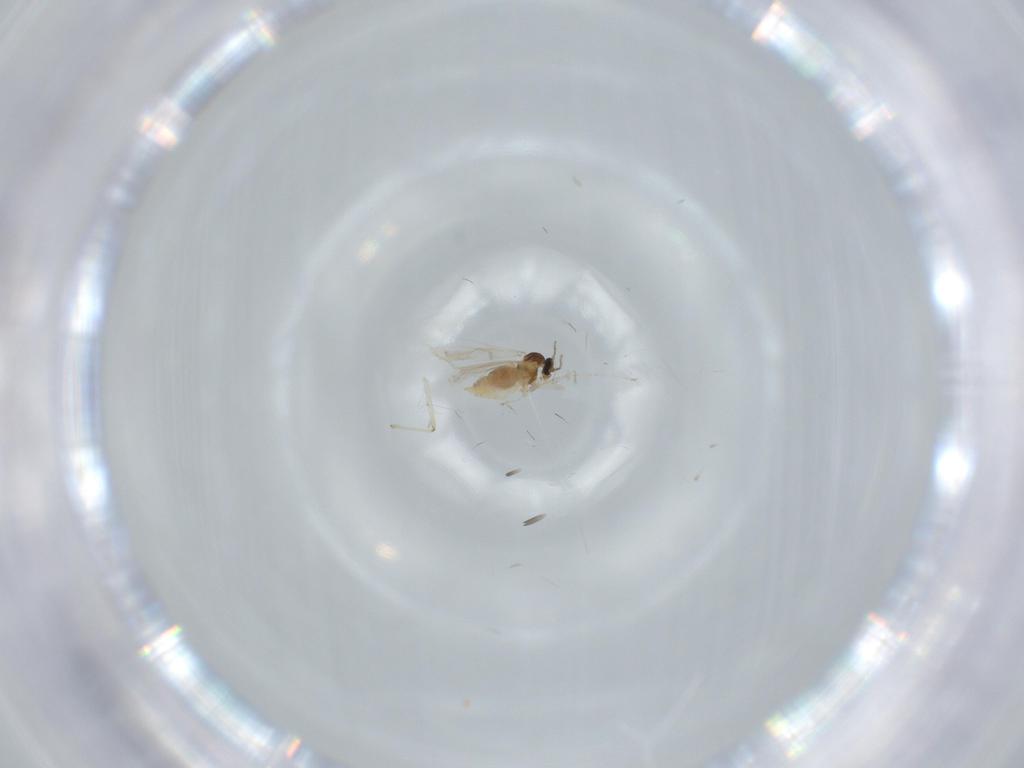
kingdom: Animalia
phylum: Arthropoda
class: Insecta
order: Diptera
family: Cecidomyiidae
